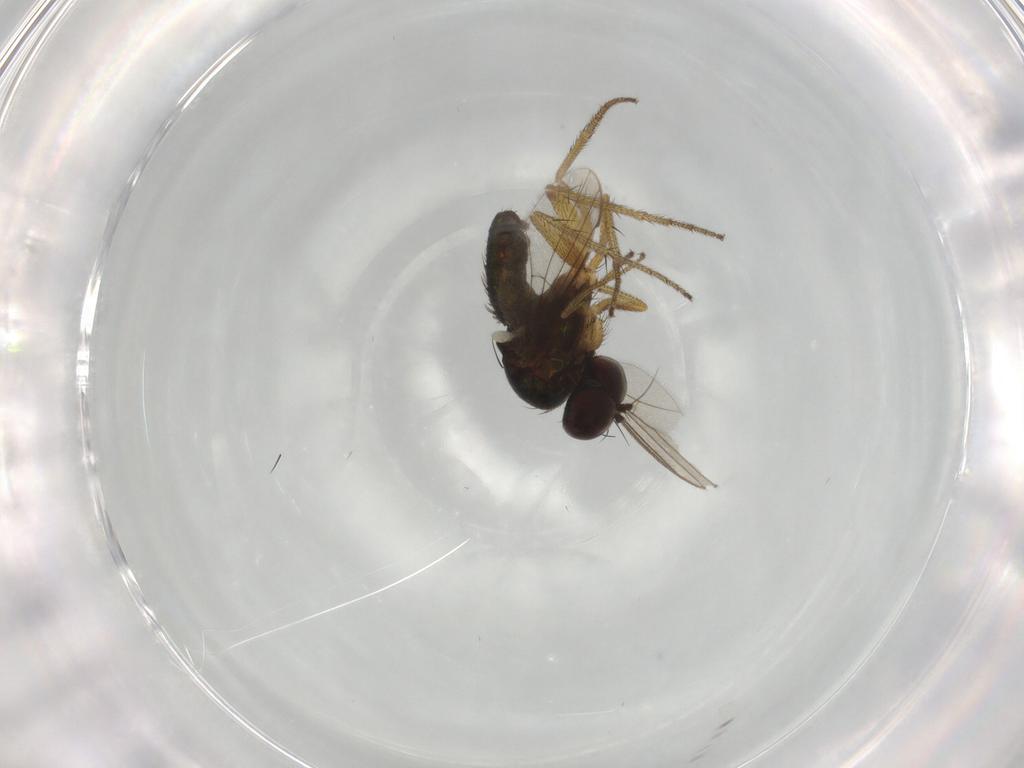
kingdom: Animalia
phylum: Arthropoda
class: Insecta
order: Diptera
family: Dolichopodidae
